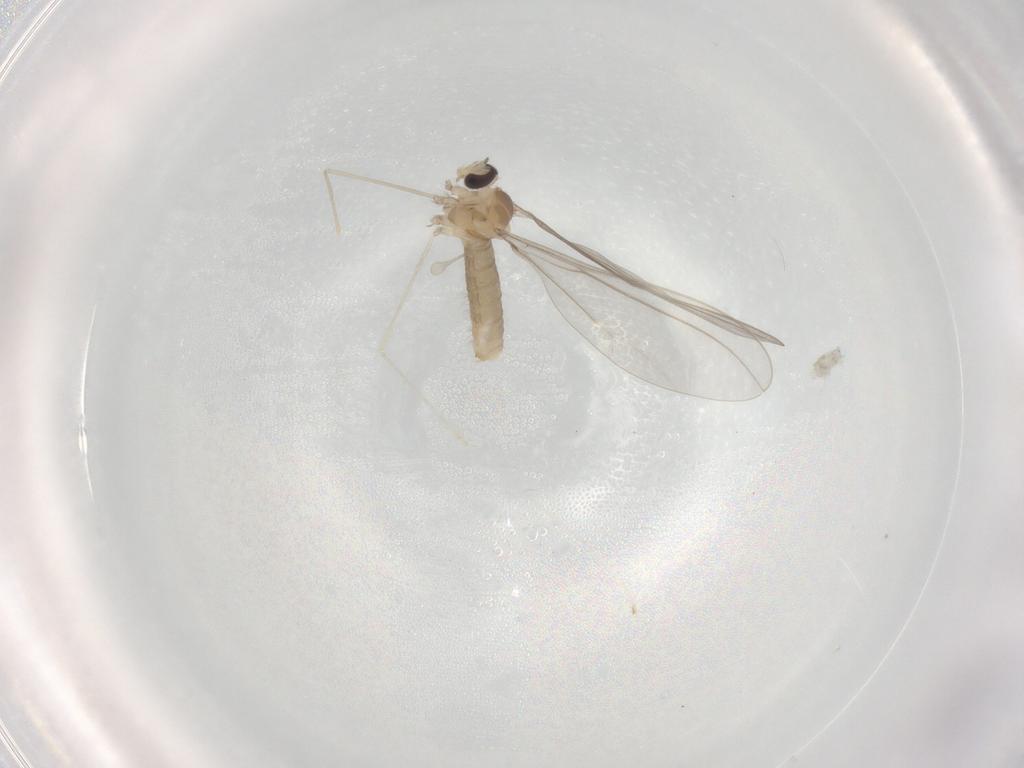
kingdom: Animalia
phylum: Arthropoda
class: Insecta
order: Diptera
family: Cecidomyiidae
